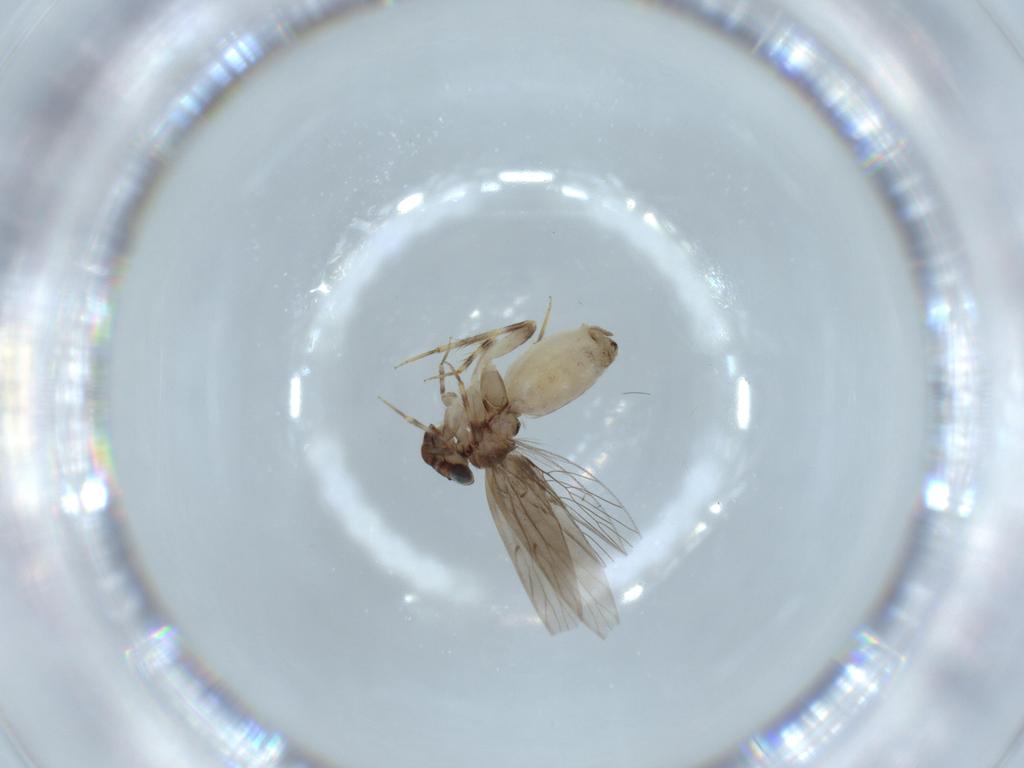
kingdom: Animalia
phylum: Arthropoda
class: Insecta
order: Psocodea
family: Lepidopsocidae
